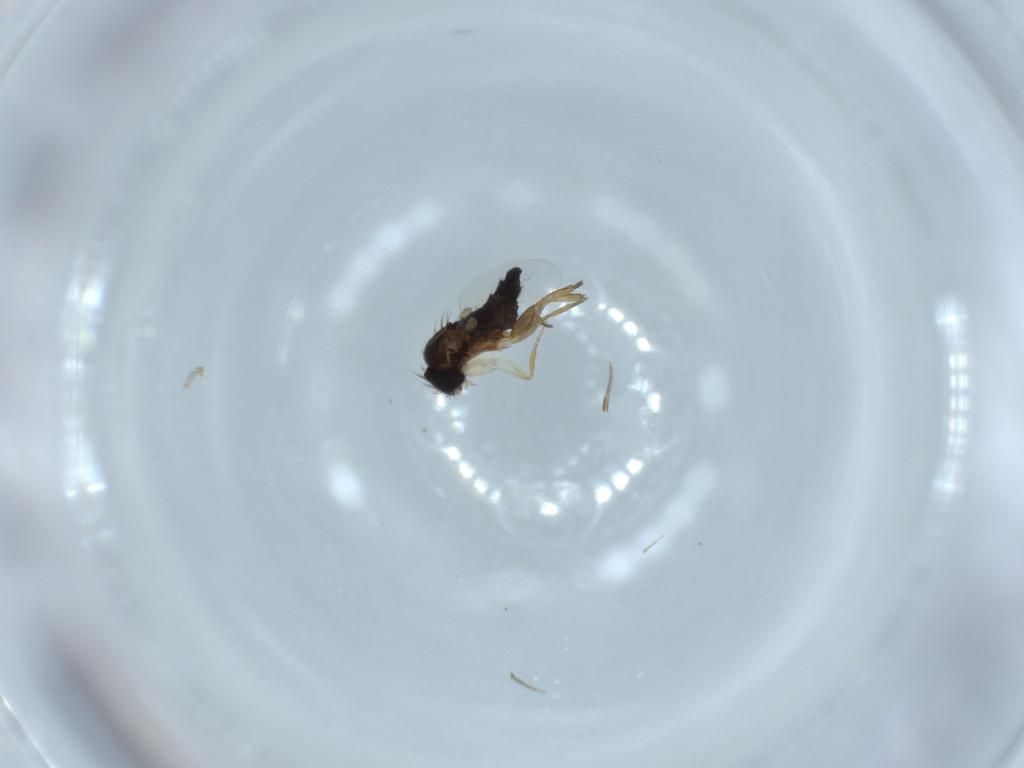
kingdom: Animalia
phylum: Arthropoda
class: Insecta
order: Diptera
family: Phoridae
